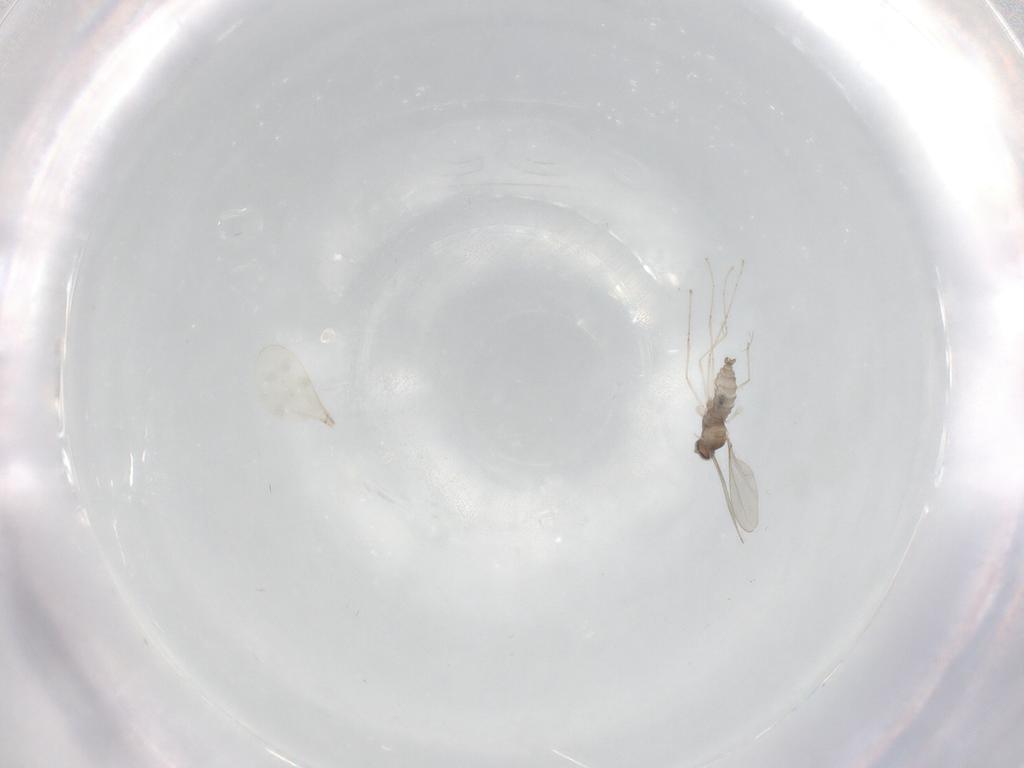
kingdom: Animalia
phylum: Arthropoda
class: Insecta
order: Diptera
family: Cecidomyiidae
